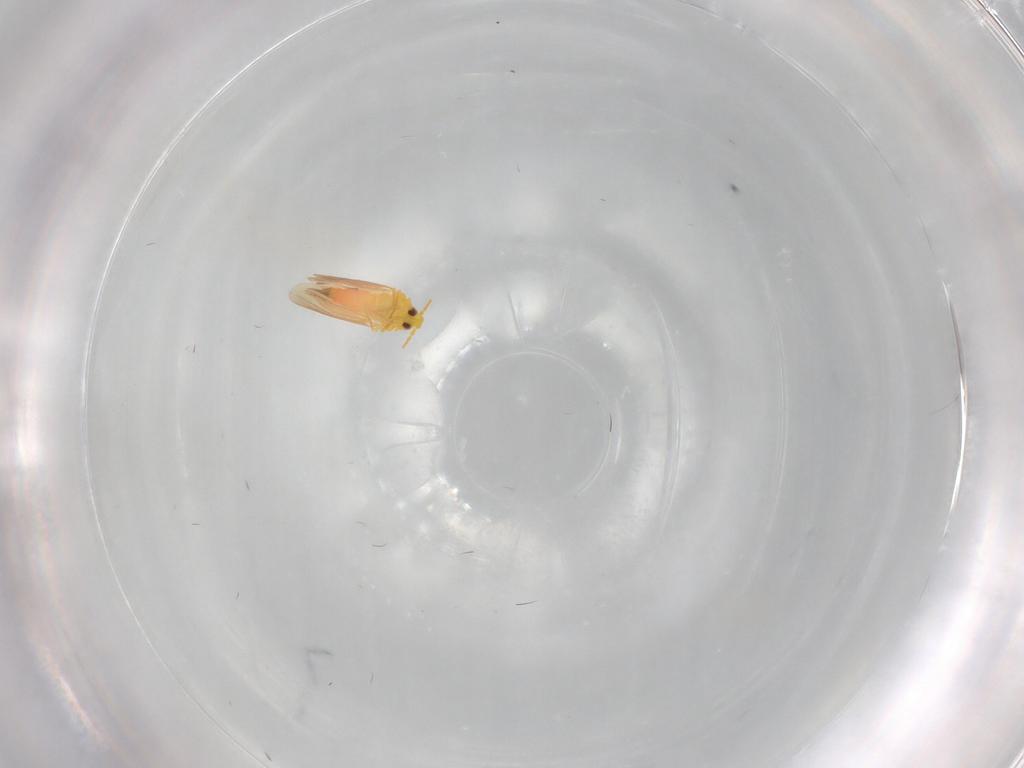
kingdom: Animalia
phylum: Arthropoda
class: Insecta
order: Hemiptera
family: Aleyrodidae
